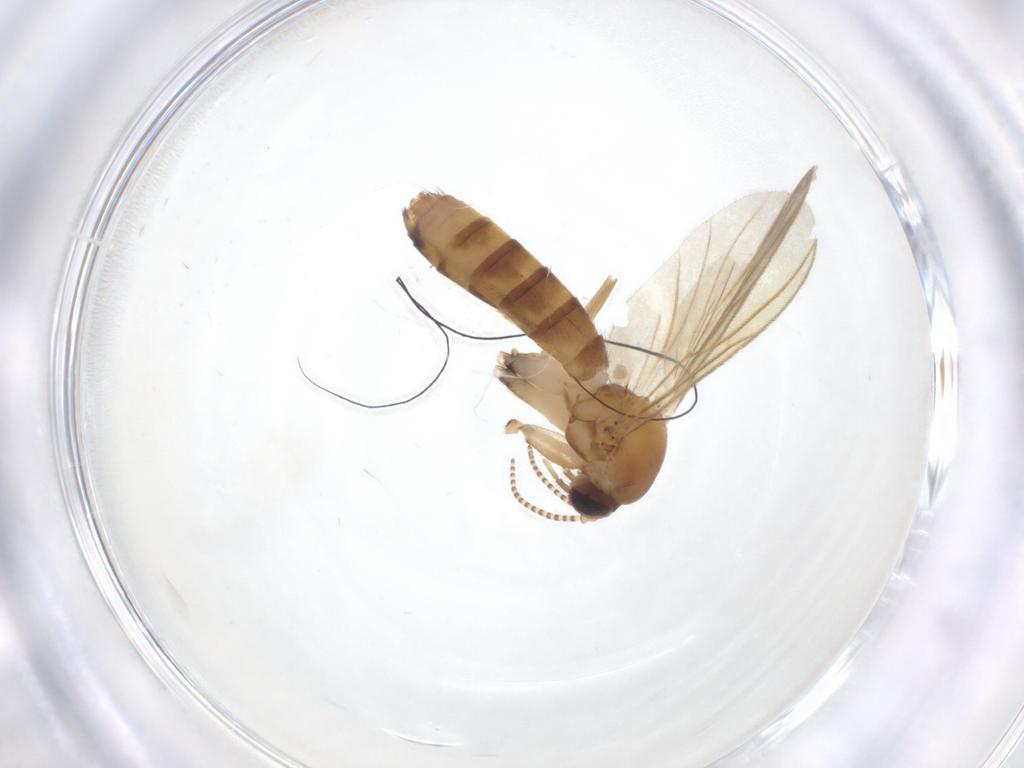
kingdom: Animalia
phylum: Arthropoda
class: Insecta
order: Diptera
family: Mycetophilidae
